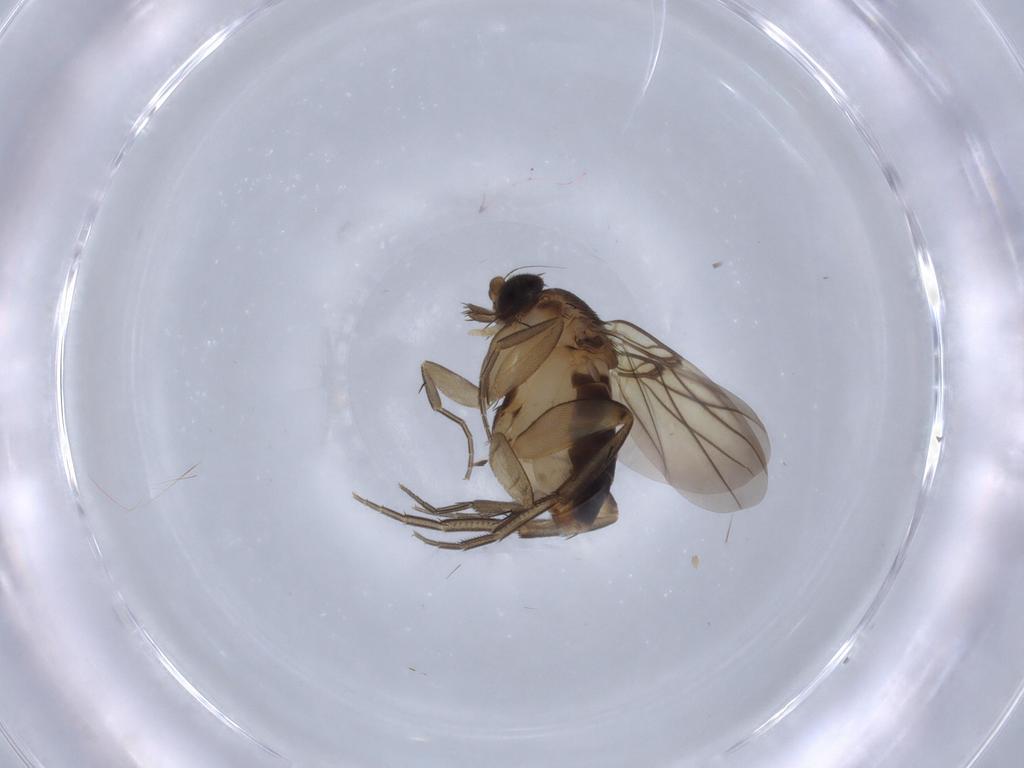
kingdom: Animalia
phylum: Arthropoda
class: Insecta
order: Diptera
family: Phoridae
